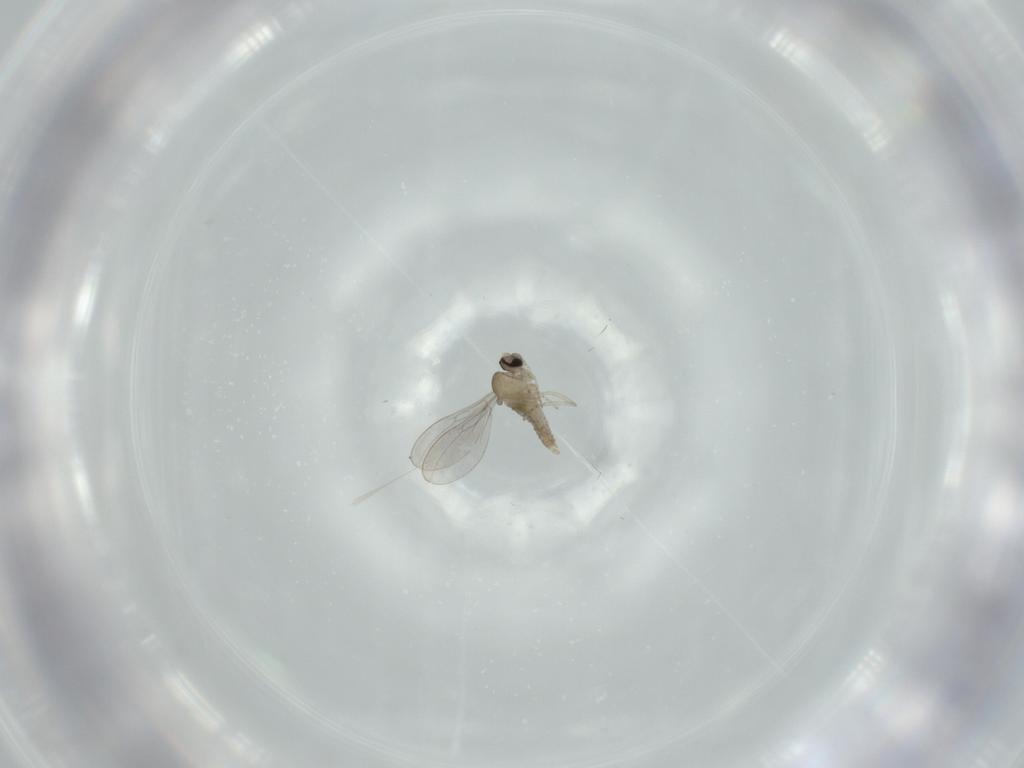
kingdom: Animalia
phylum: Arthropoda
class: Insecta
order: Diptera
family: Cecidomyiidae
